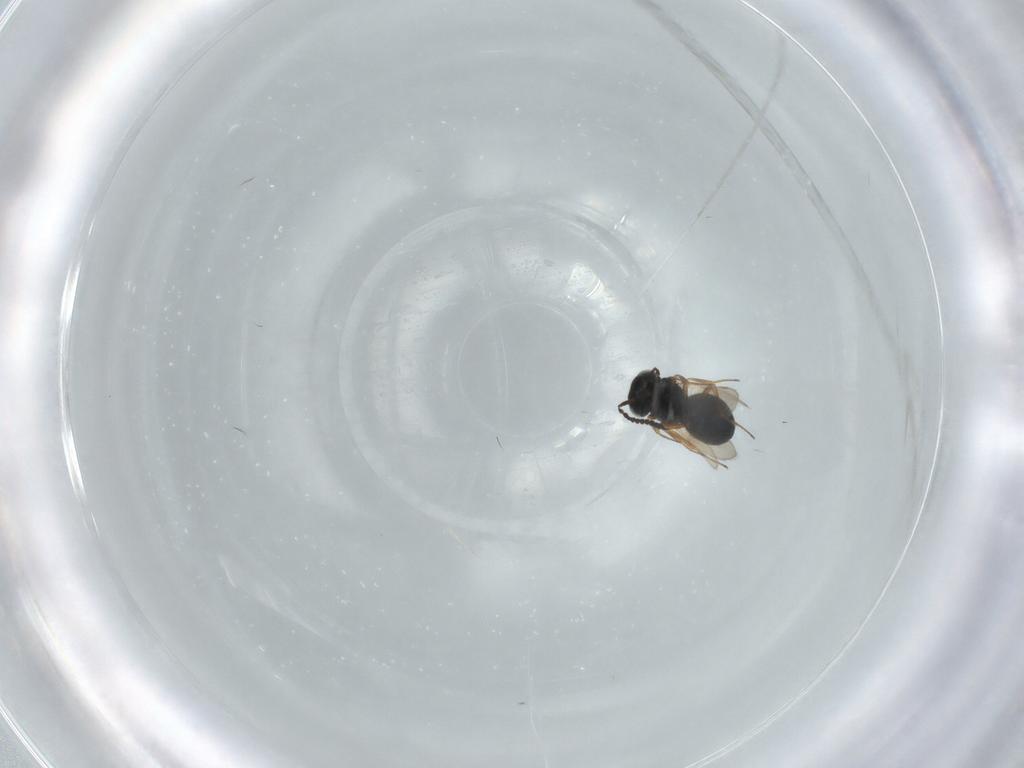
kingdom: Animalia
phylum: Arthropoda
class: Insecta
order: Hymenoptera
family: Scelionidae
